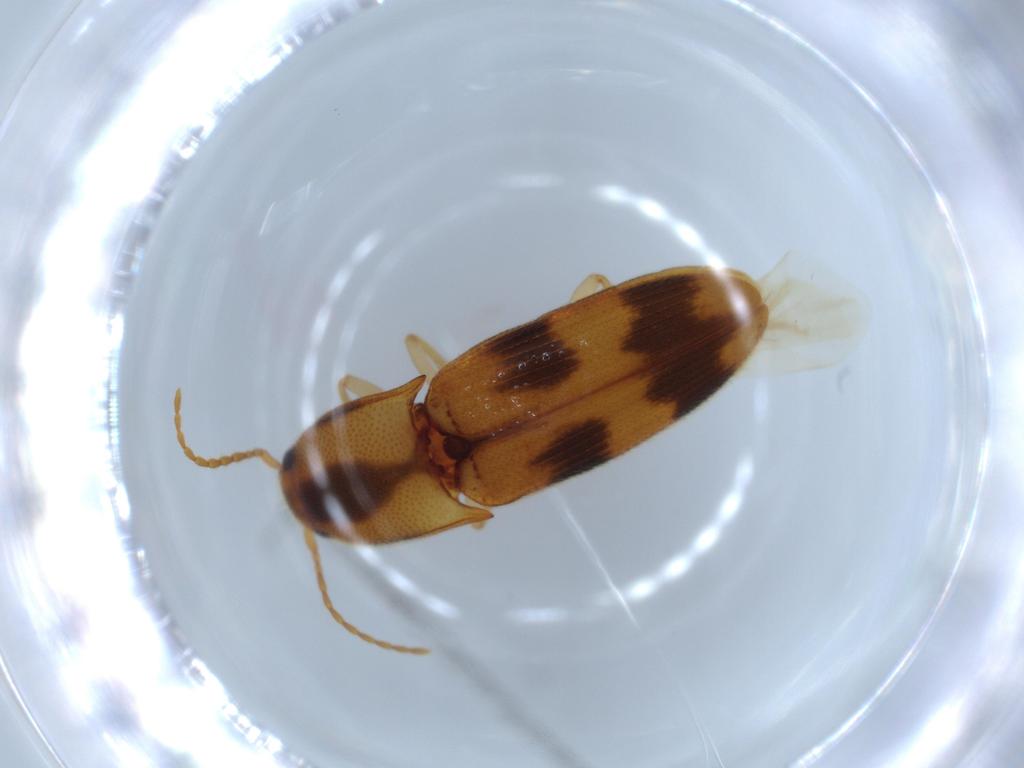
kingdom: Animalia
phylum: Arthropoda
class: Insecta
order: Coleoptera
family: Elateridae
